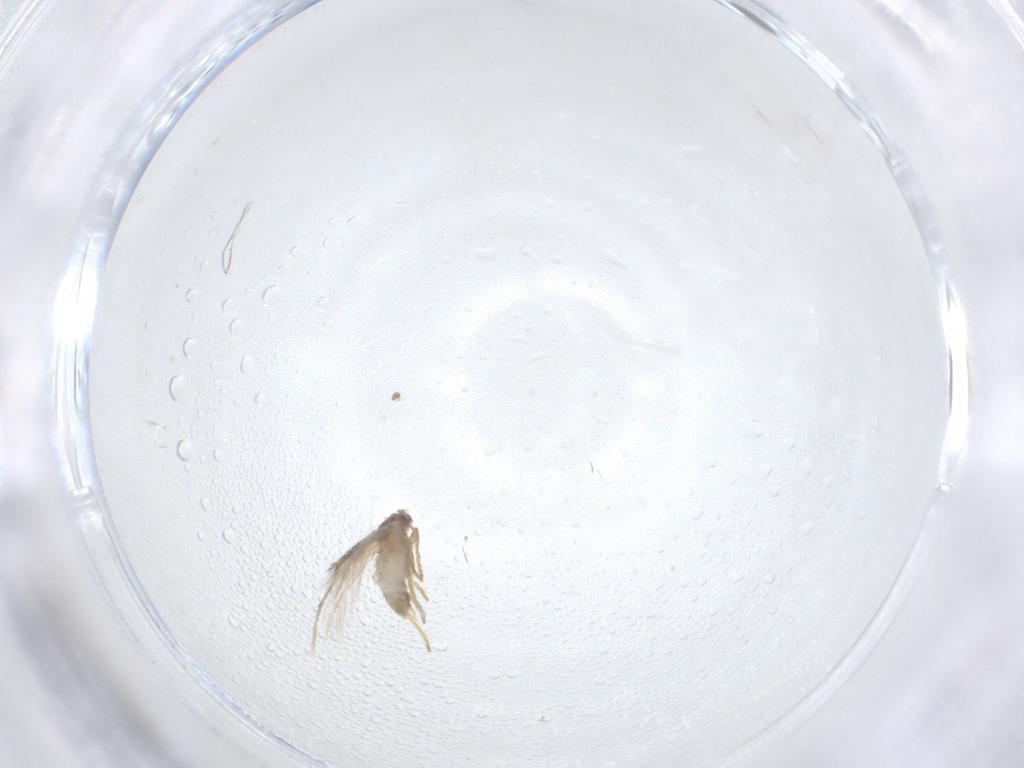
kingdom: Animalia
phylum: Arthropoda
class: Insecta
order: Lepidoptera
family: Nepticulidae
